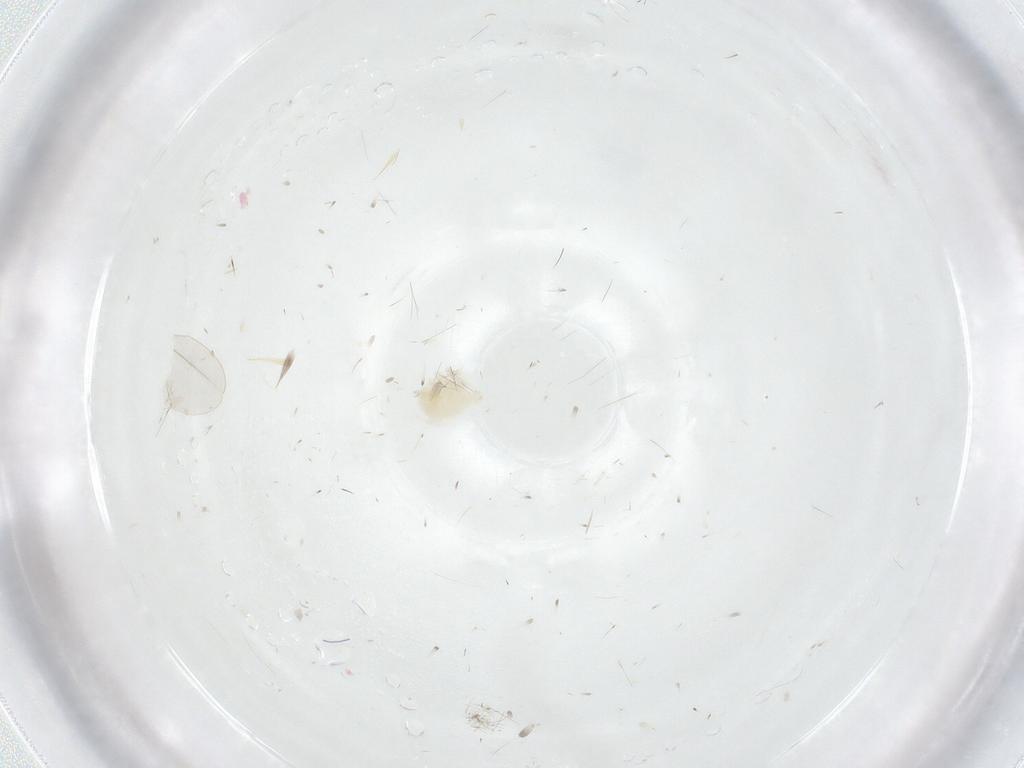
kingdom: Animalia
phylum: Arthropoda
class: Arachnida
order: Trombidiformes
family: Anystidae
